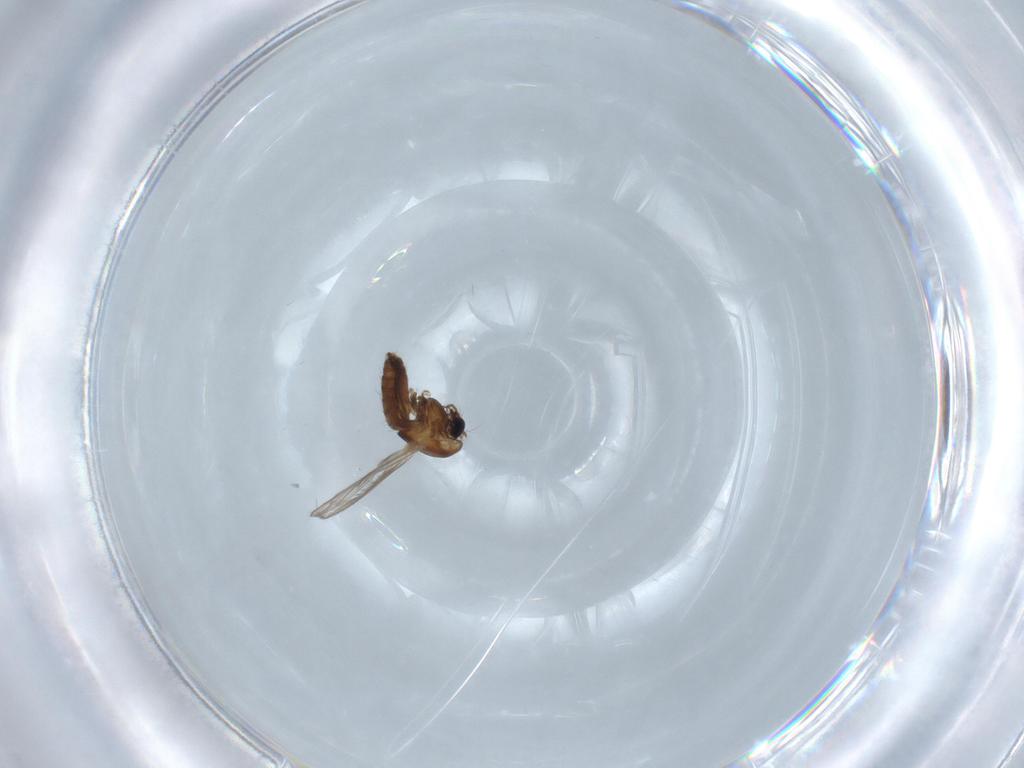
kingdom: Animalia
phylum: Arthropoda
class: Insecta
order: Diptera
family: Chironomidae
